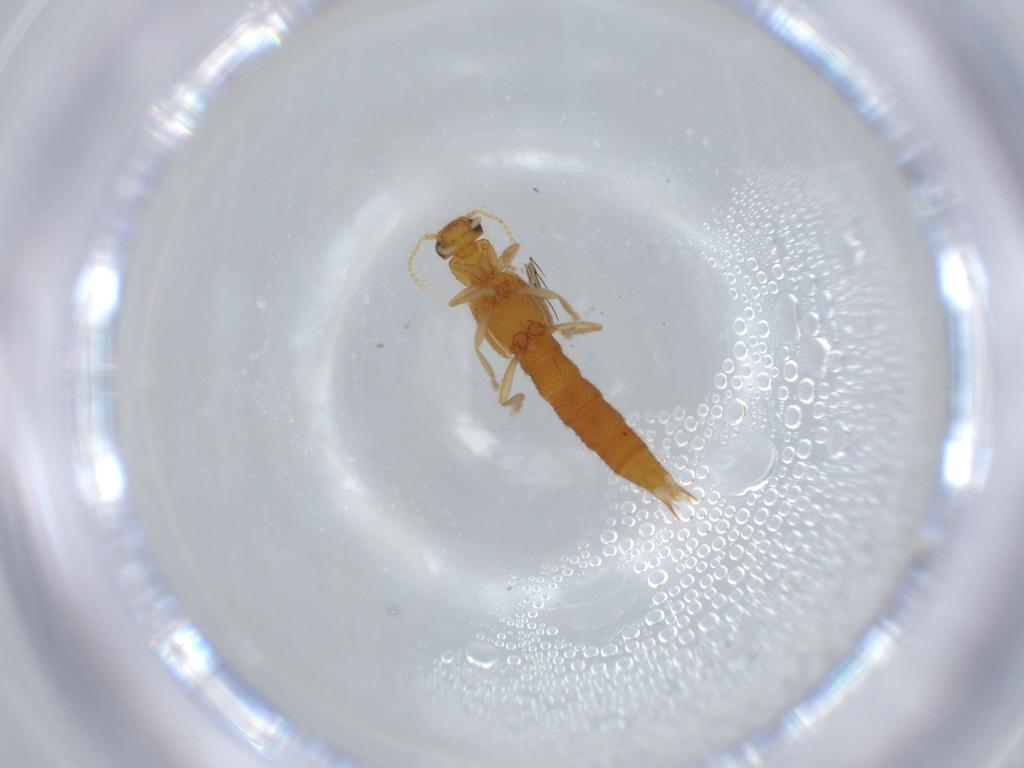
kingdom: Animalia
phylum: Arthropoda
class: Insecta
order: Coleoptera
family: Staphylinidae
